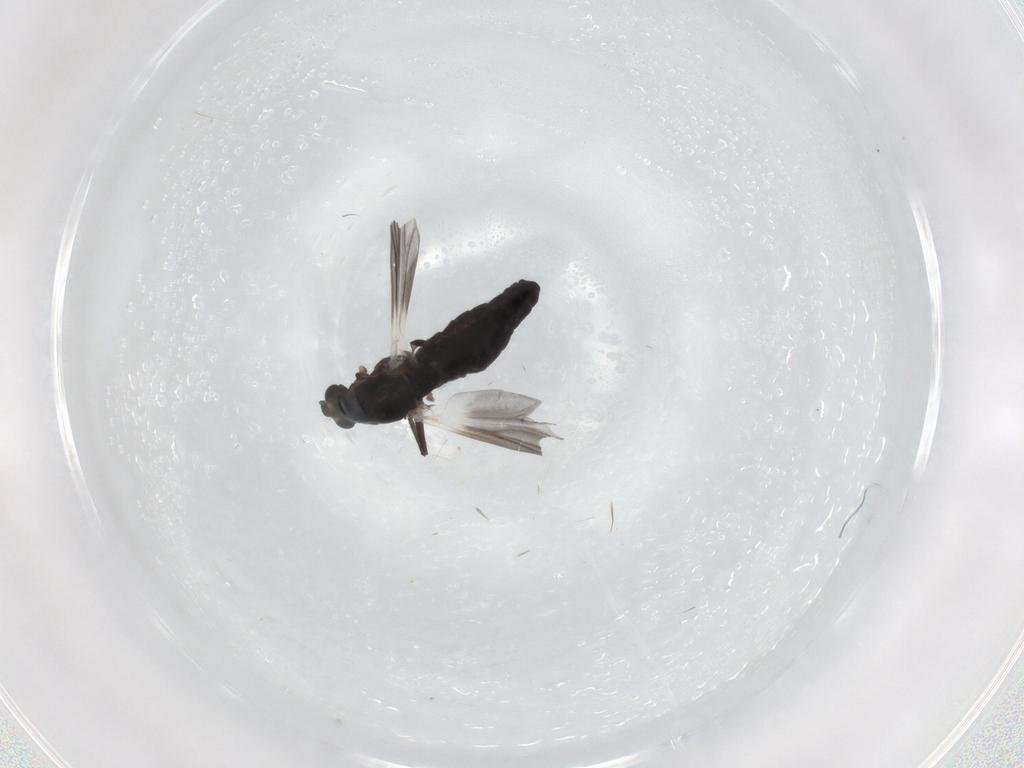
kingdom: Animalia
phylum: Arthropoda
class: Insecta
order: Diptera
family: Chironomidae
